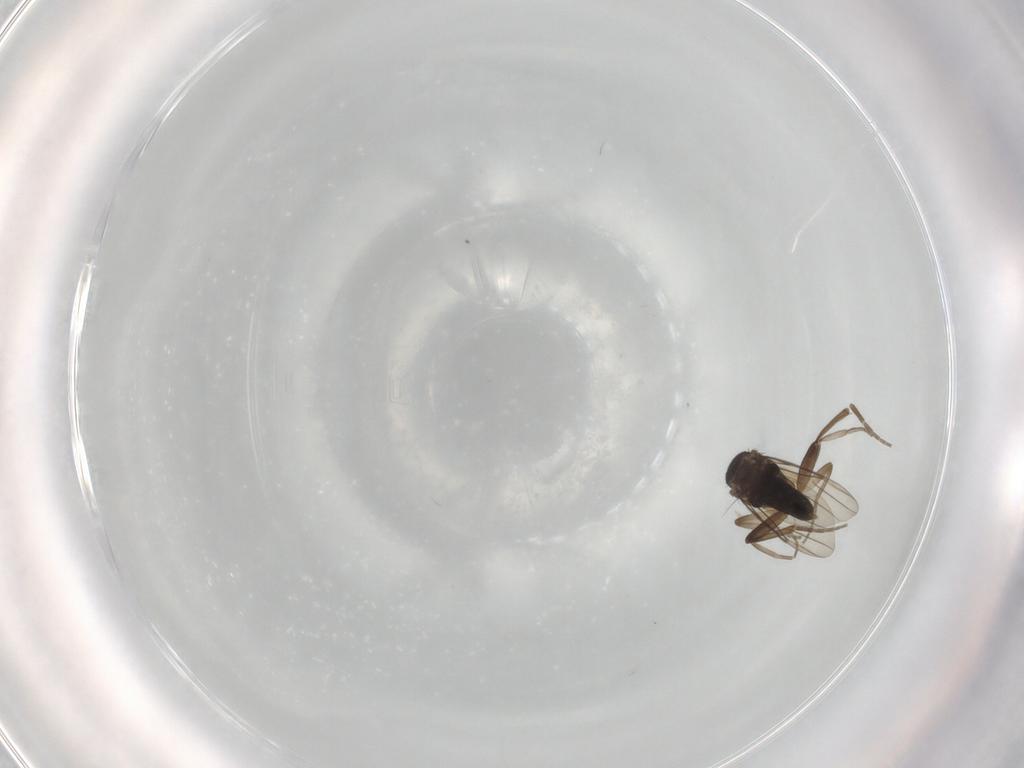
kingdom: Animalia
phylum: Arthropoda
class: Insecta
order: Diptera
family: Phoridae
